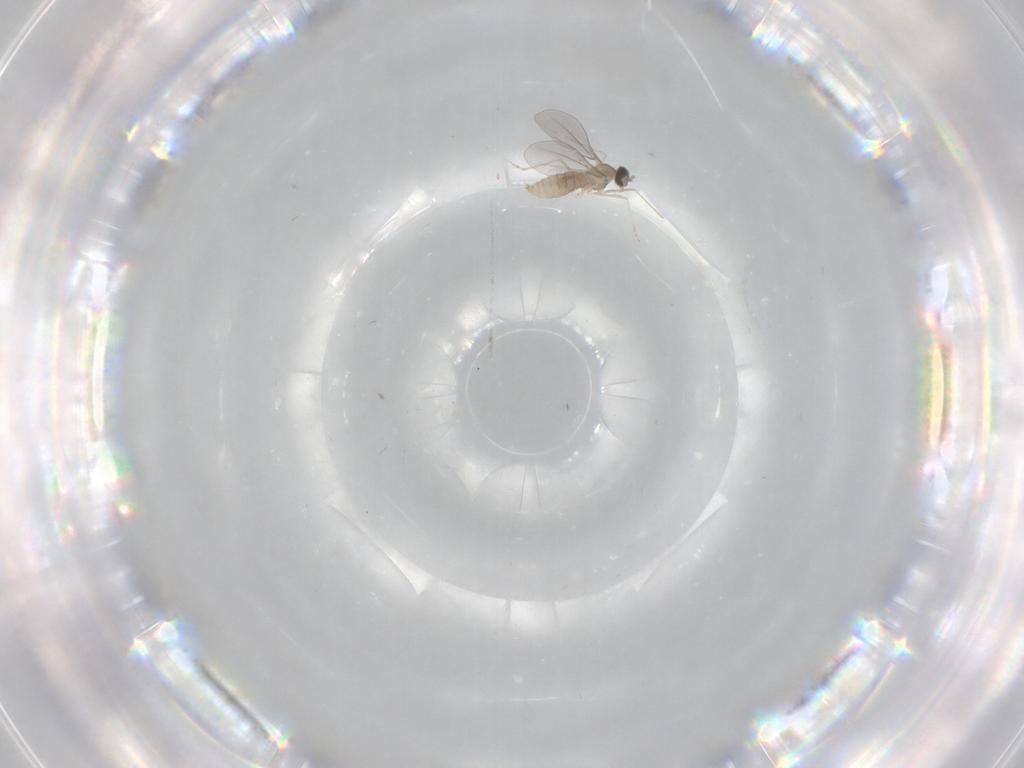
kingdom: Animalia
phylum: Arthropoda
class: Insecta
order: Diptera
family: Cecidomyiidae
